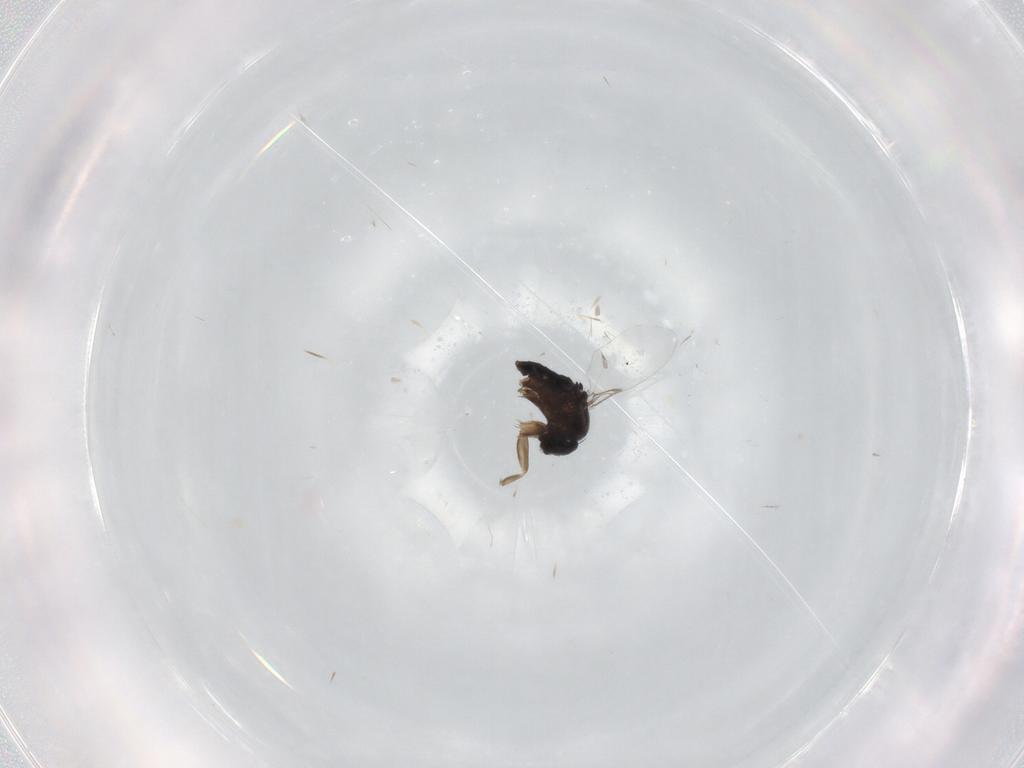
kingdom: Animalia
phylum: Arthropoda
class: Insecta
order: Diptera
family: Phoridae
